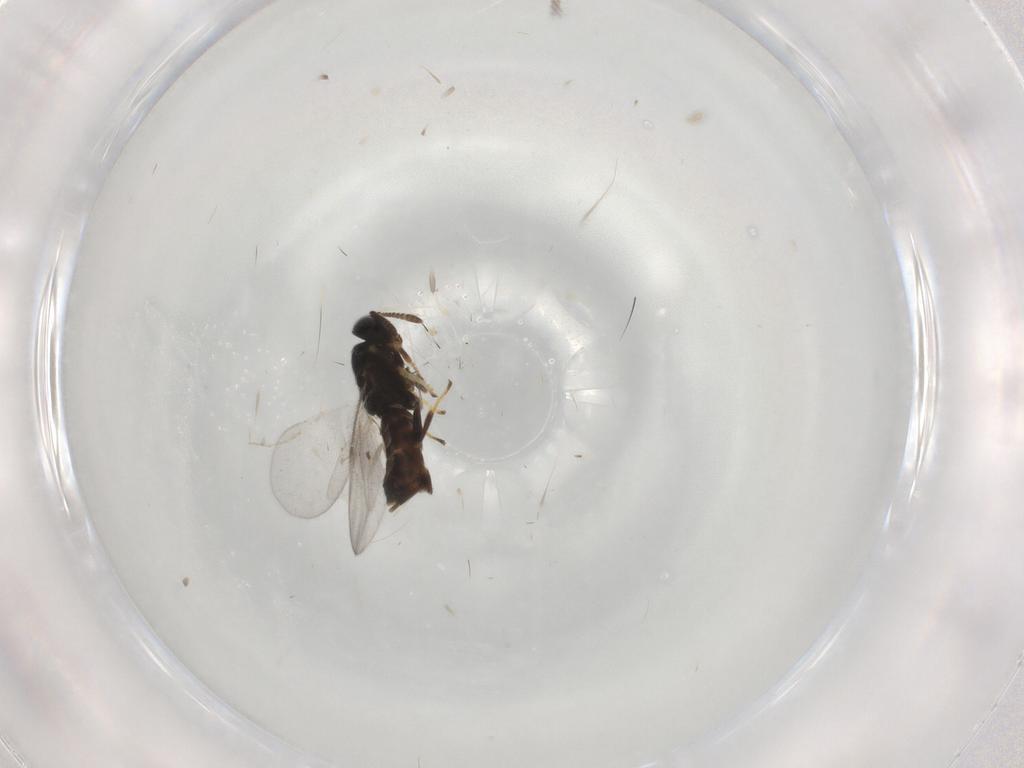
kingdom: Animalia
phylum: Arthropoda
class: Insecta
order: Hymenoptera
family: Encyrtidae
